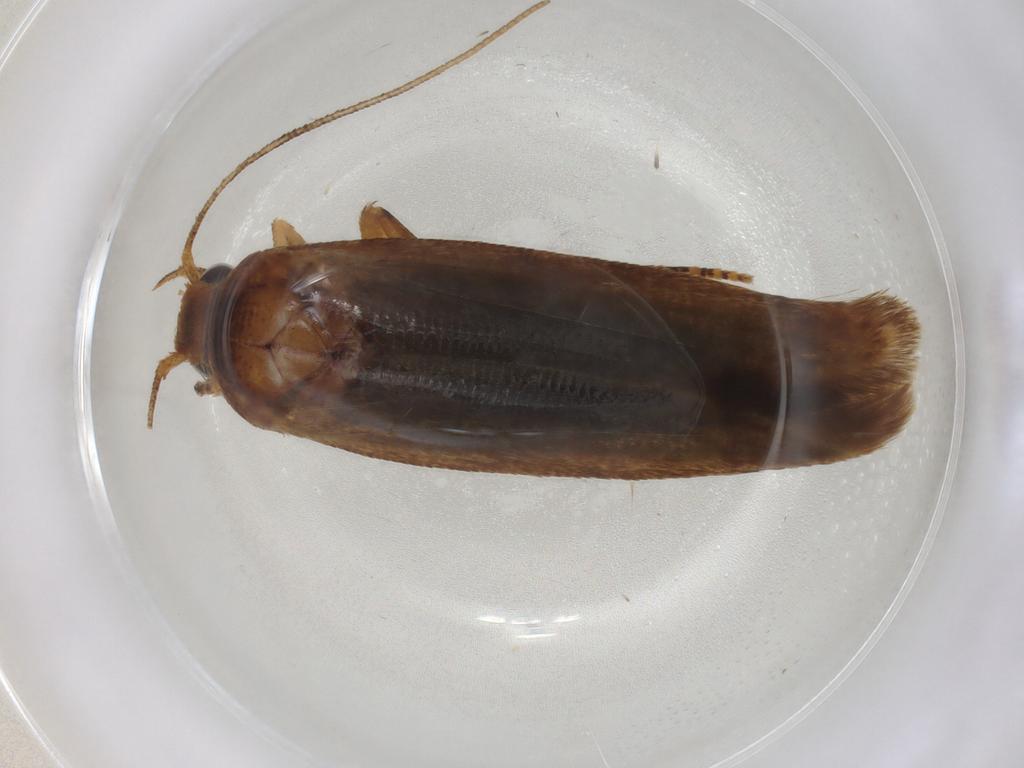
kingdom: Animalia
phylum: Arthropoda
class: Insecta
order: Lepidoptera
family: Coleophoridae
